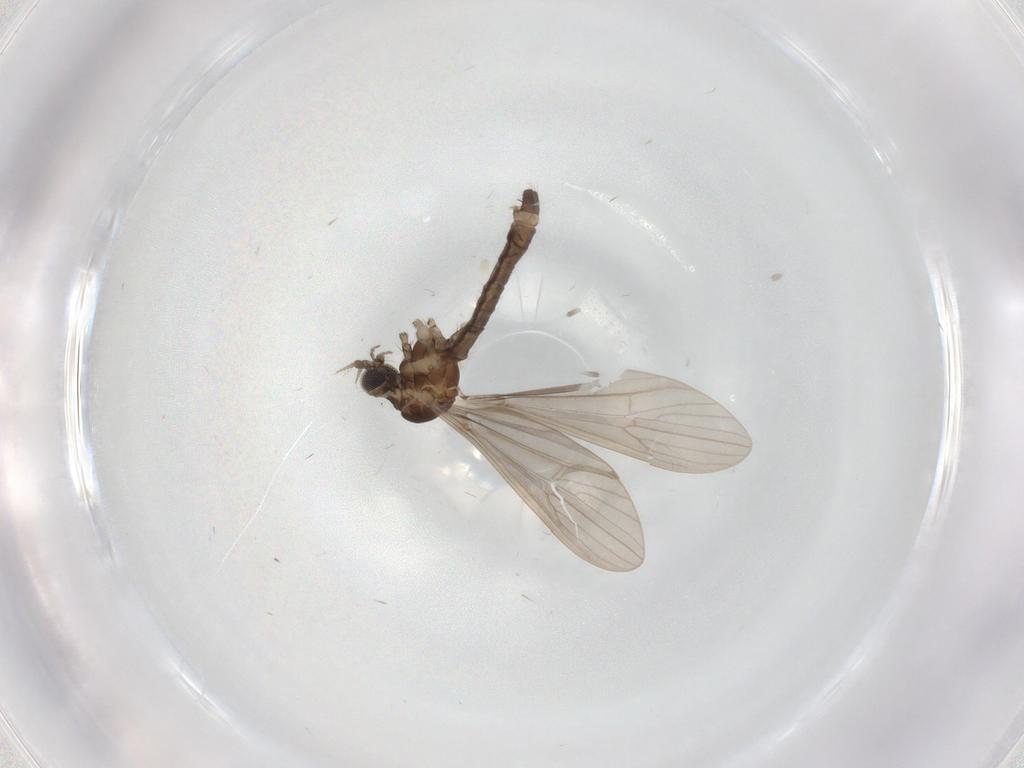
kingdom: Animalia
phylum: Arthropoda
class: Insecta
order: Diptera
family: Limoniidae
